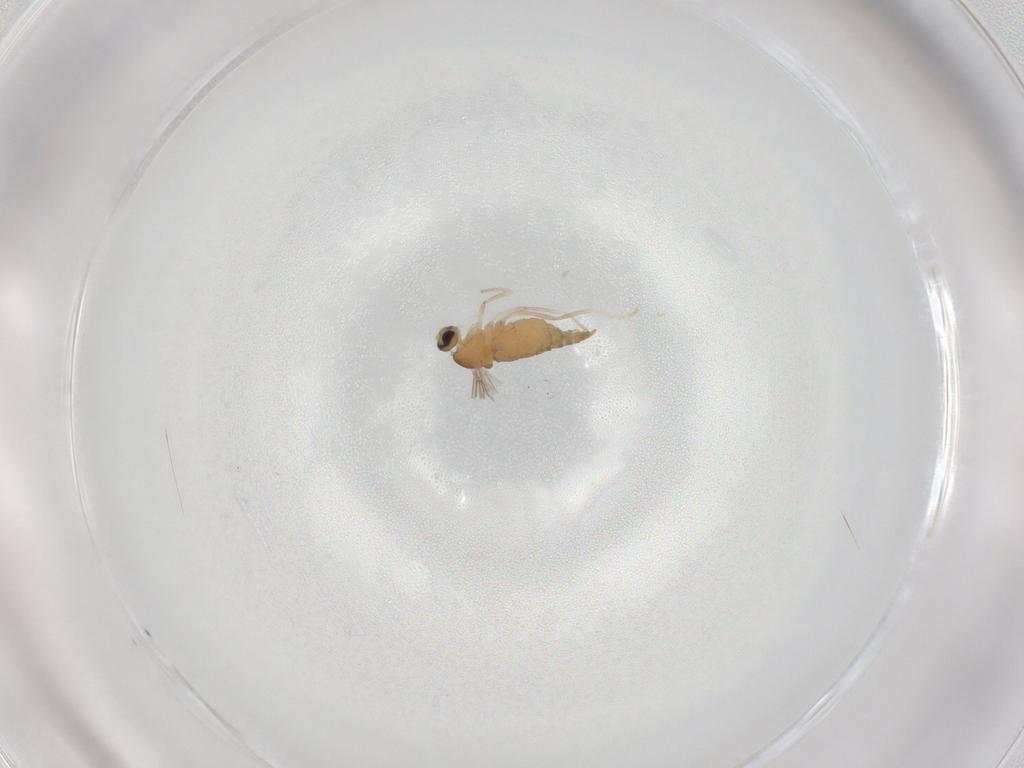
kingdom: Animalia
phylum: Arthropoda
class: Insecta
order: Diptera
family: Cecidomyiidae
